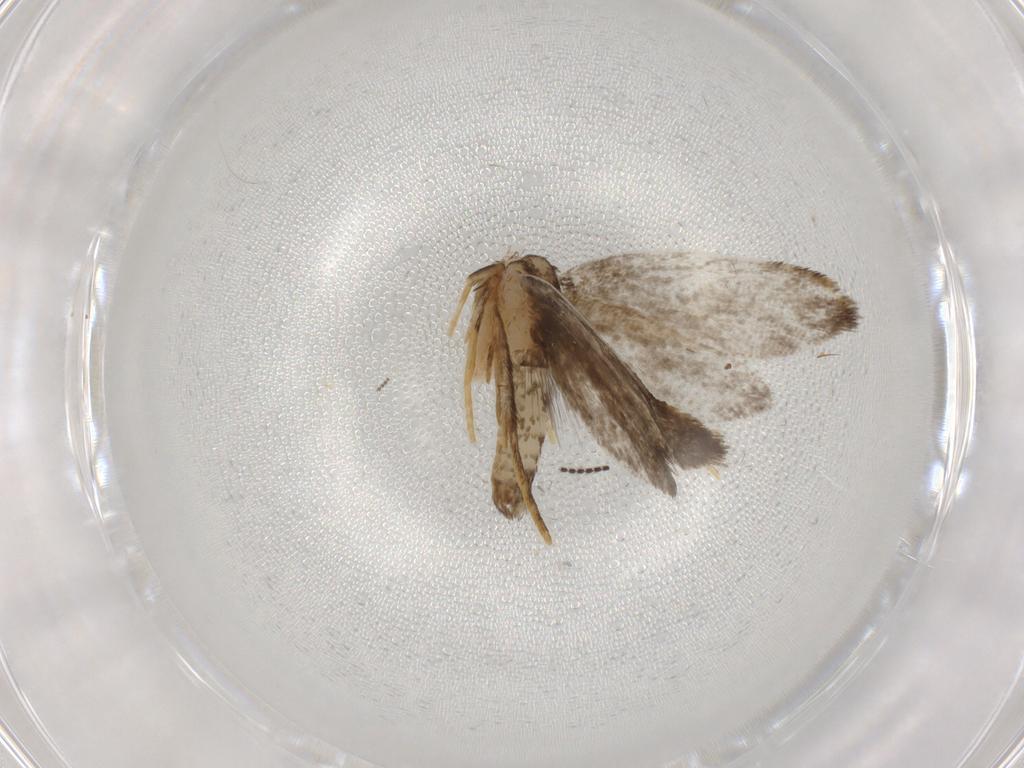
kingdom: Animalia
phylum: Arthropoda
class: Insecta
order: Lepidoptera
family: Psychidae
